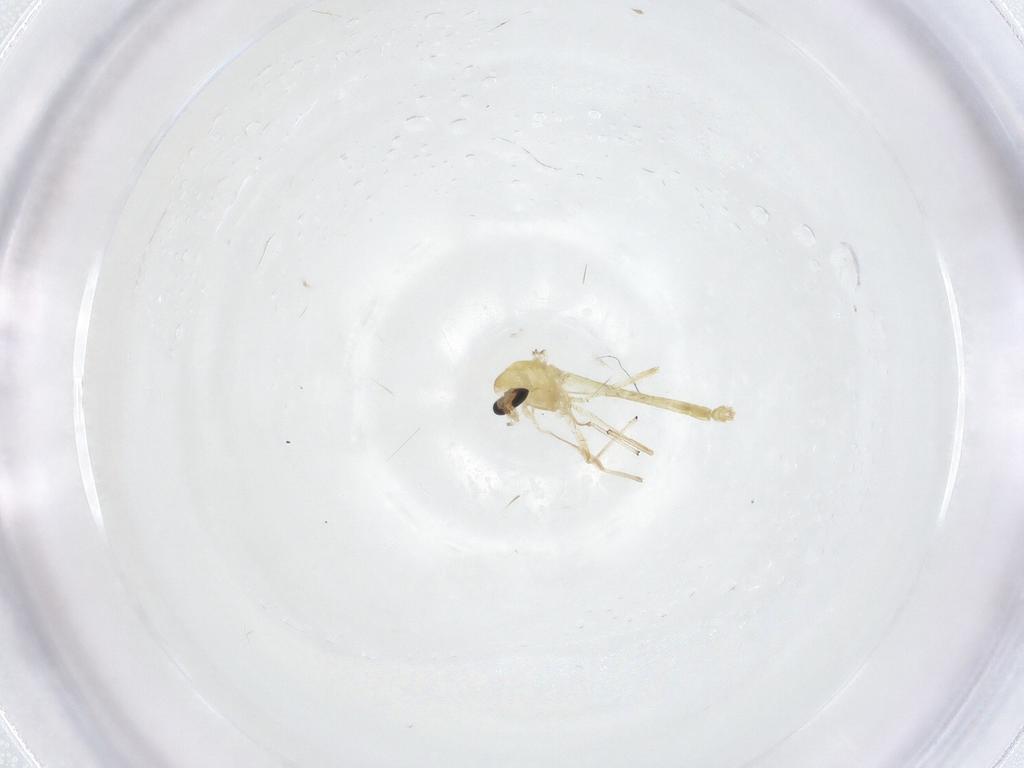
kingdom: Animalia
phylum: Arthropoda
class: Insecta
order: Diptera
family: Chironomidae
